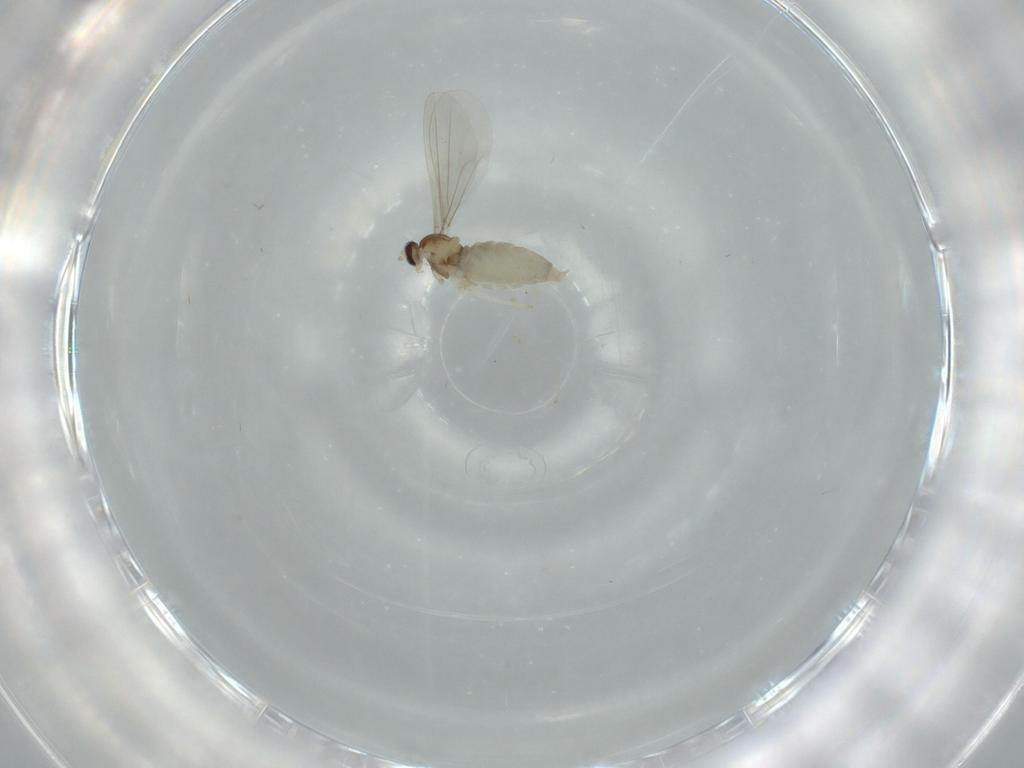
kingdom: Animalia
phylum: Arthropoda
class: Insecta
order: Diptera
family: Cecidomyiidae
